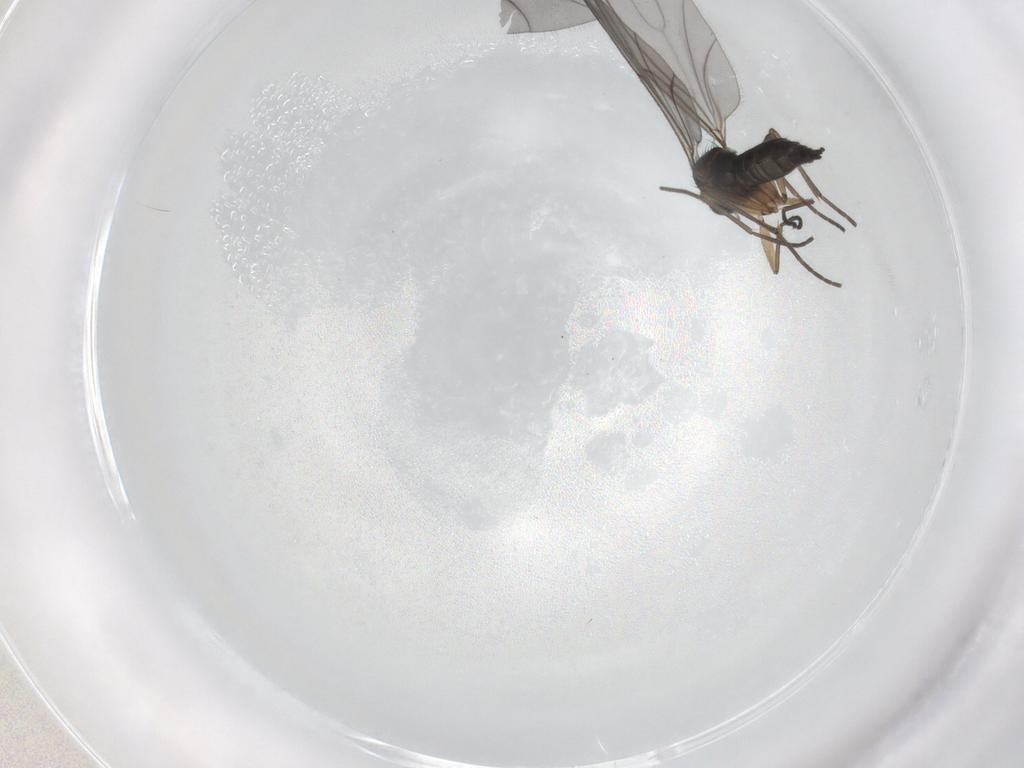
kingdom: Animalia
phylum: Arthropoda
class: Insecta
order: Diptera
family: Sciaridae
